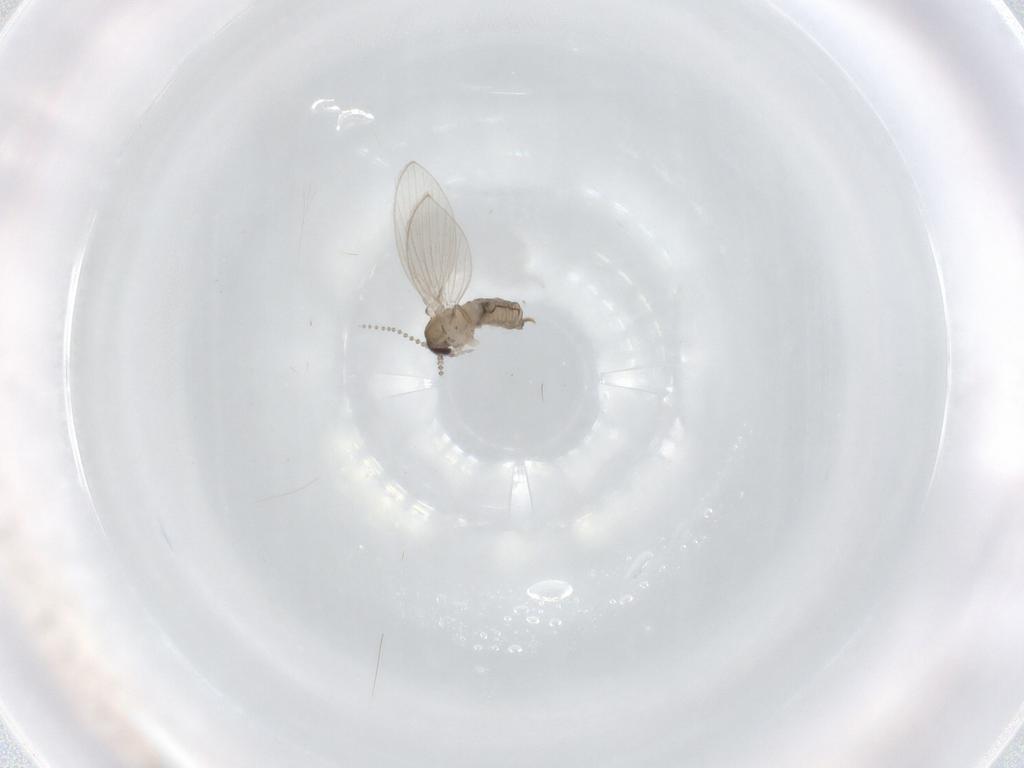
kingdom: Animalia
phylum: Arthropoda
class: Insecta
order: Diptera
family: Psychodidae
